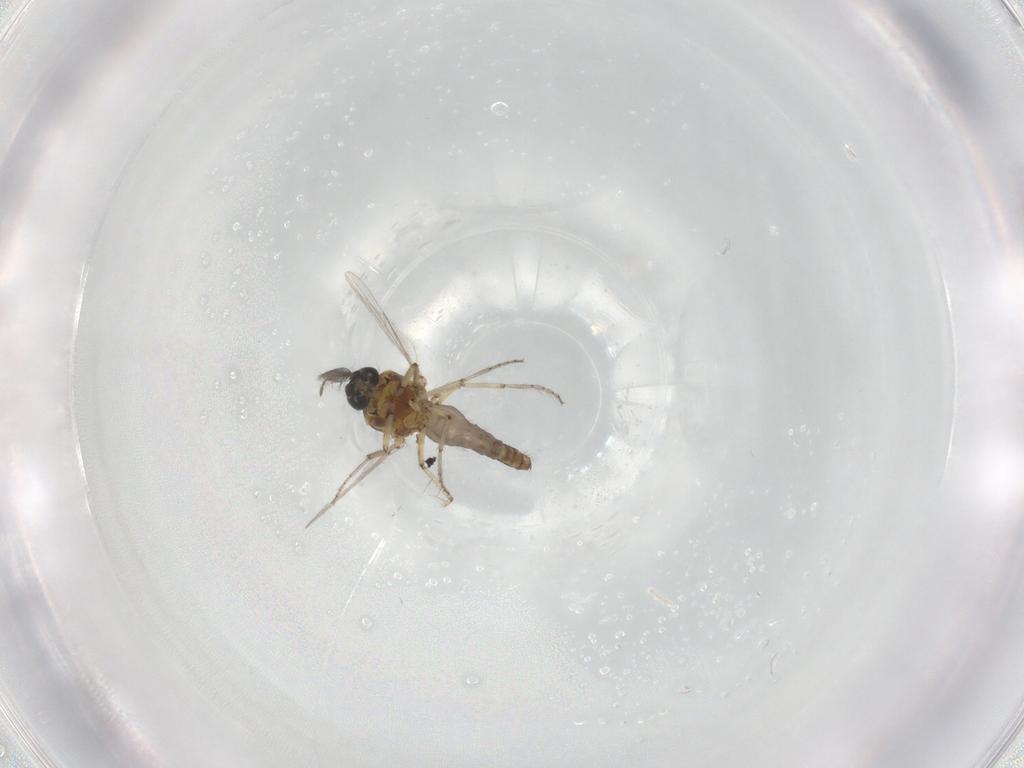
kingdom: Animalia
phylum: Arthropoda
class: Insecta
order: Diptera
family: Ceratopogonidae
